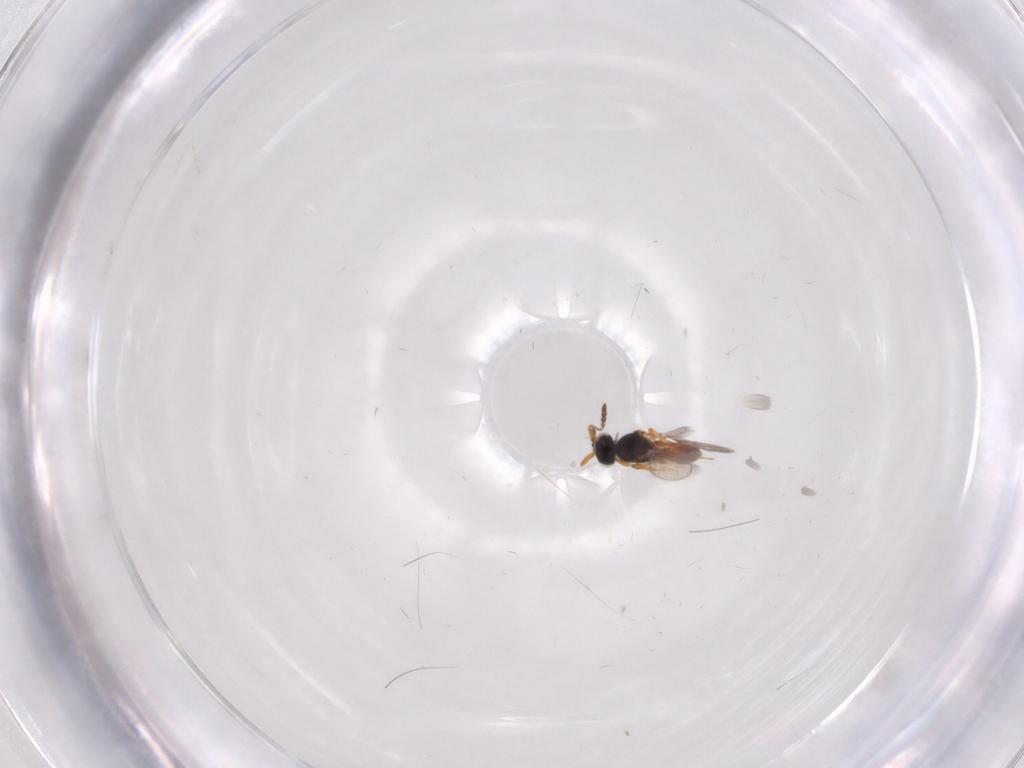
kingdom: Animalia
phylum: Arthropoda
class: Insecta
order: Hymenoptera
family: Platygastridae
